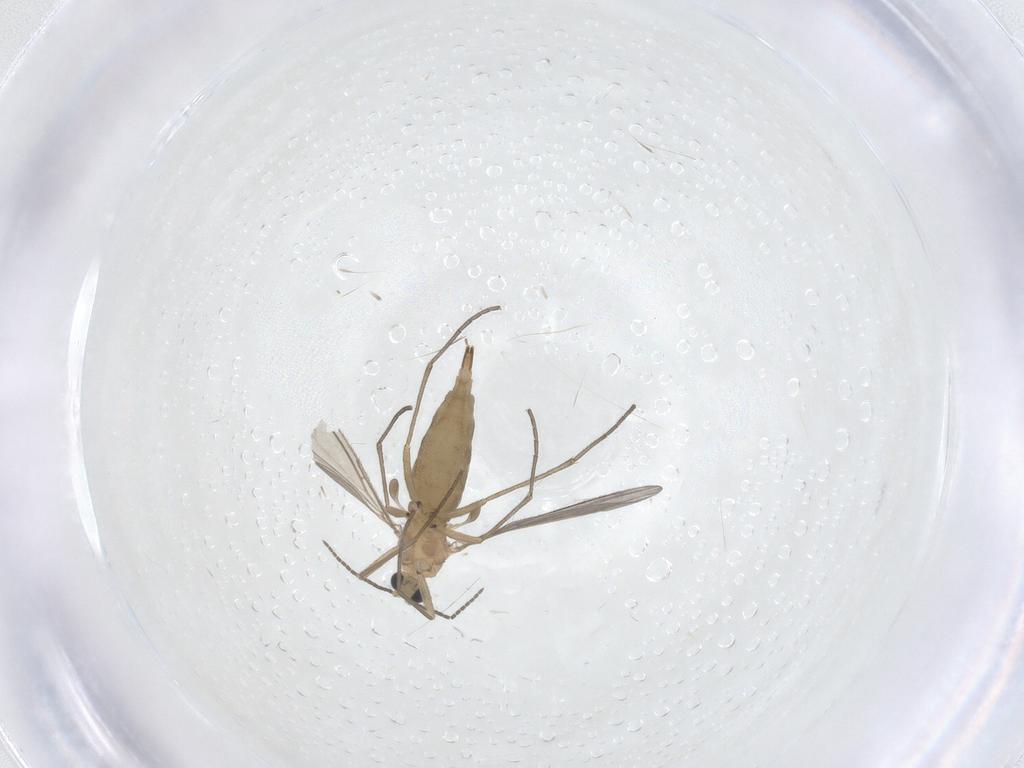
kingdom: Animalia
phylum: Arthropoda
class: Insecta
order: Diptera
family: Sciaridae
